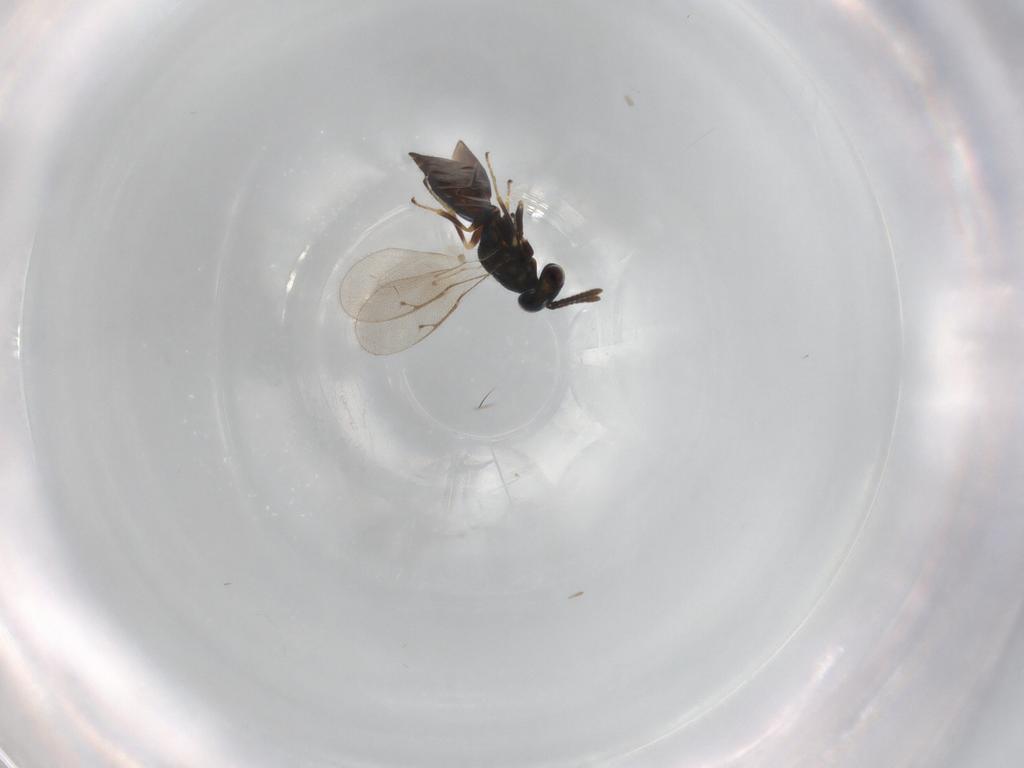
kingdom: Animalia
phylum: Arthropoda
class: Insecta
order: Hymenoptera
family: Pteromalidae
